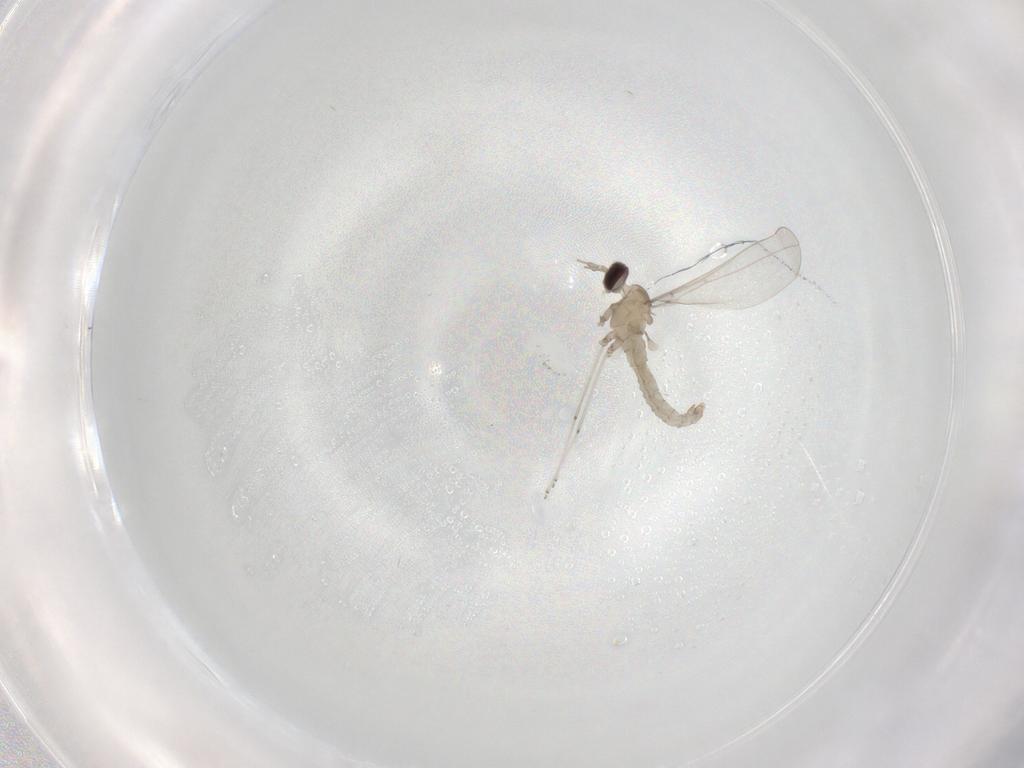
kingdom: Animalia
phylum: Arthropoda
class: Insecta
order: Diptera
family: Cecidomyiidae
